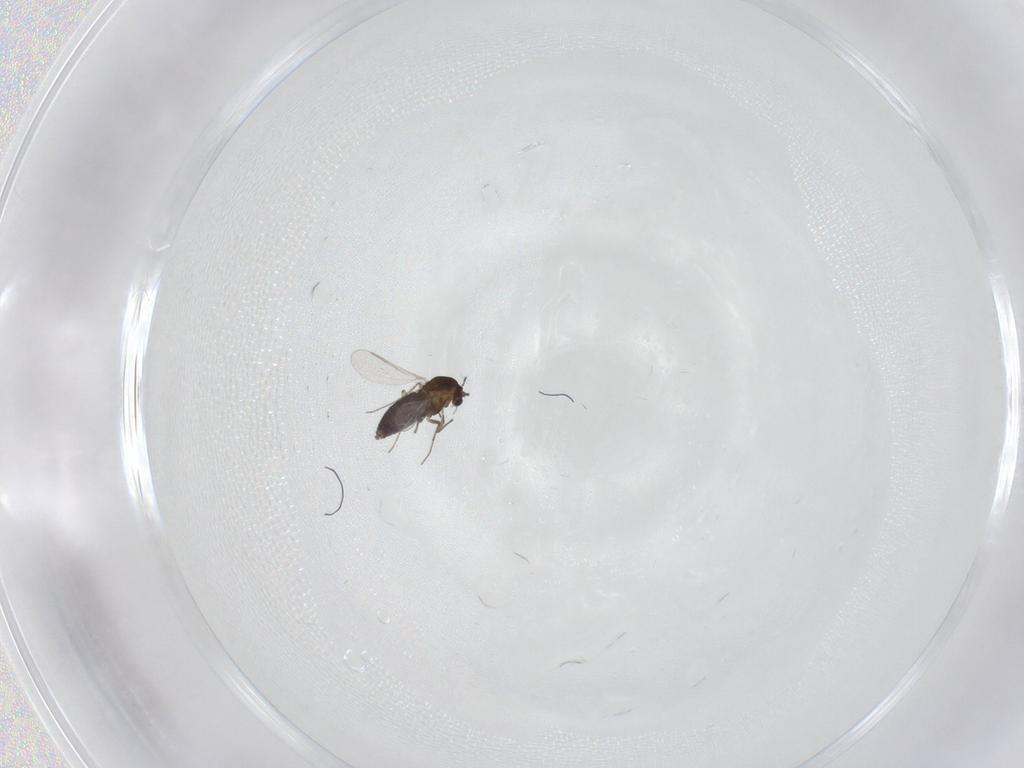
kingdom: Animalia
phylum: Arthropoda
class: Insecta
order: Diptera
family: Chironomidae
